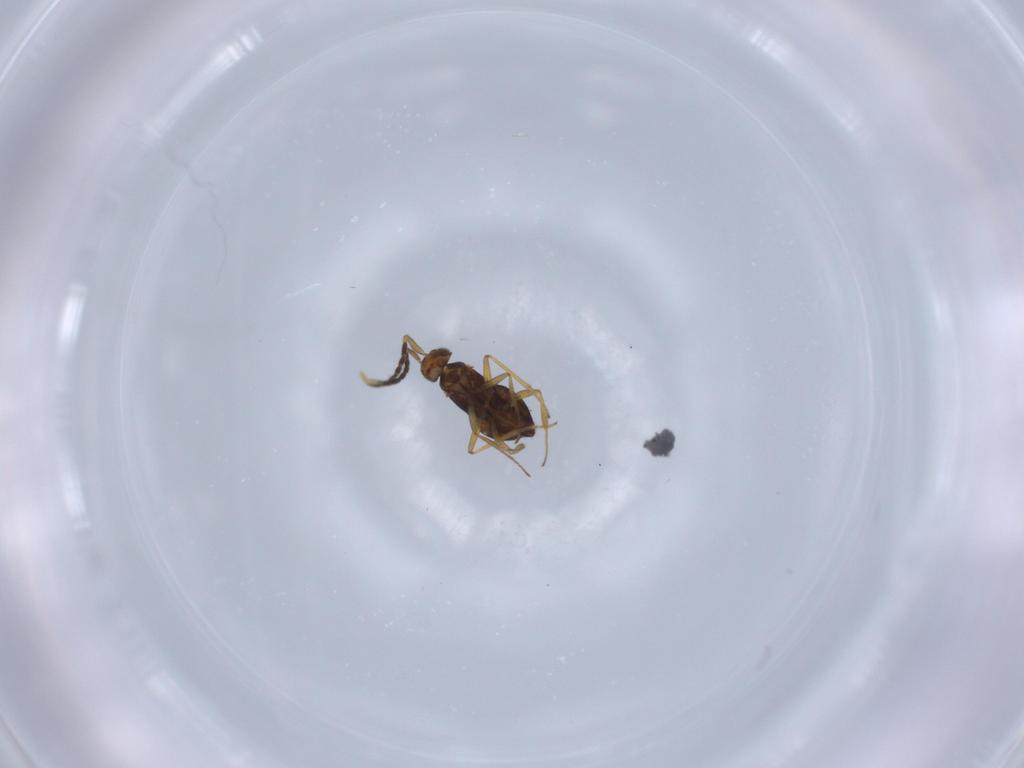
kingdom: Animalia
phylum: Arthropoda
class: Insecta
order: Hymenoptera
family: Encyrtidae
